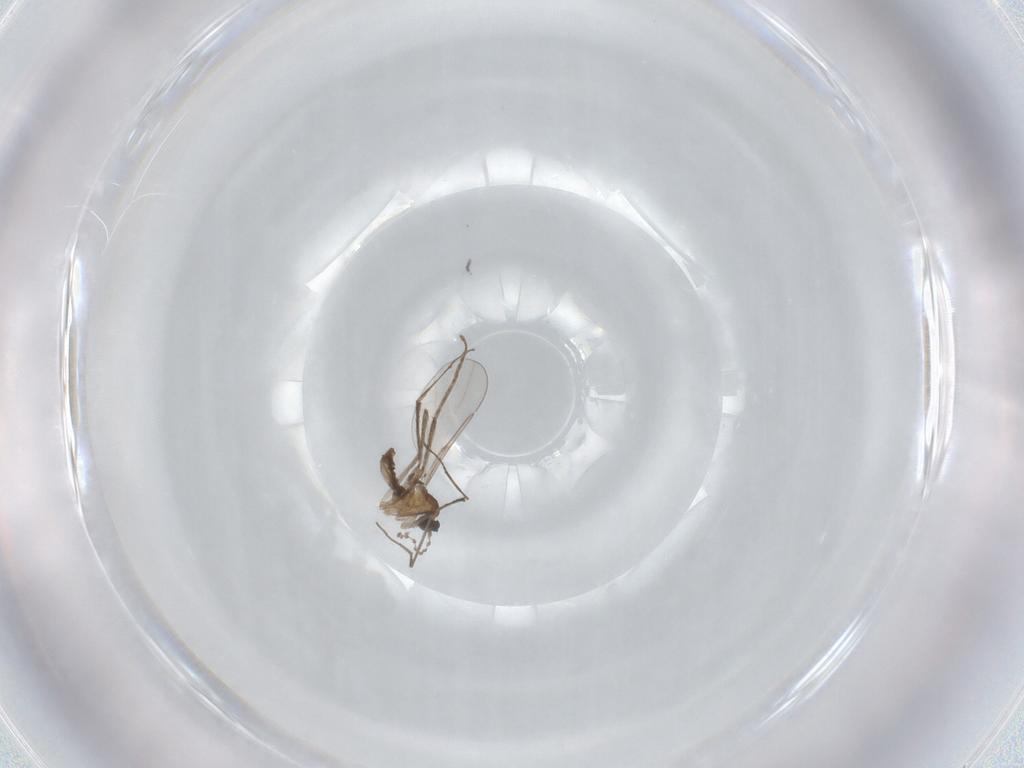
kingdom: Animalia
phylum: Arthropoda
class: Insecta
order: Diptera
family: Cecidomyiidae
